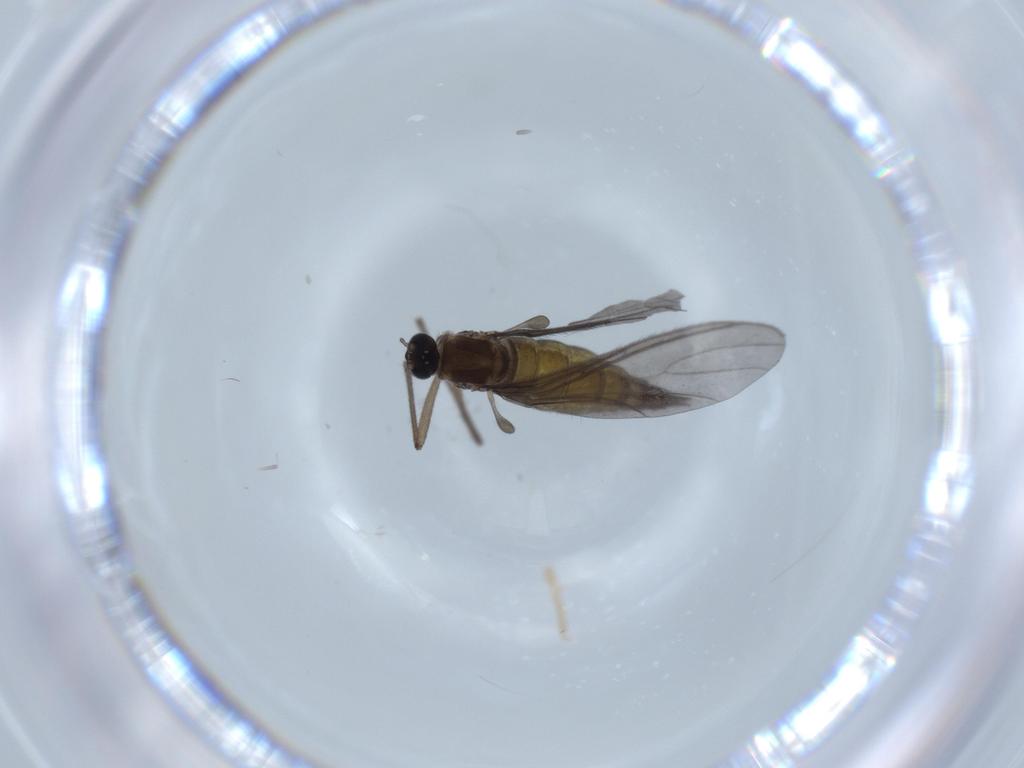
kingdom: Animalia
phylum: Arthropoda
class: Insecta
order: Diptera
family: Sciaridae
